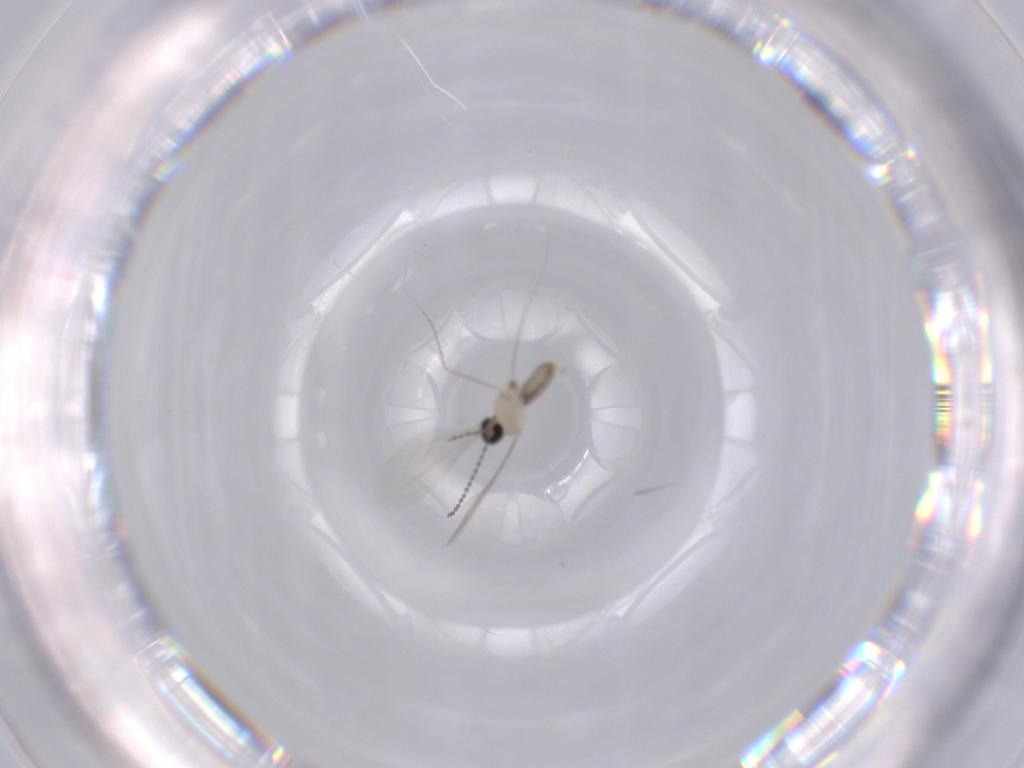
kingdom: Animalia
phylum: Arthropoda
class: Insecta
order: Diptera
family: Cecidomyiidae
